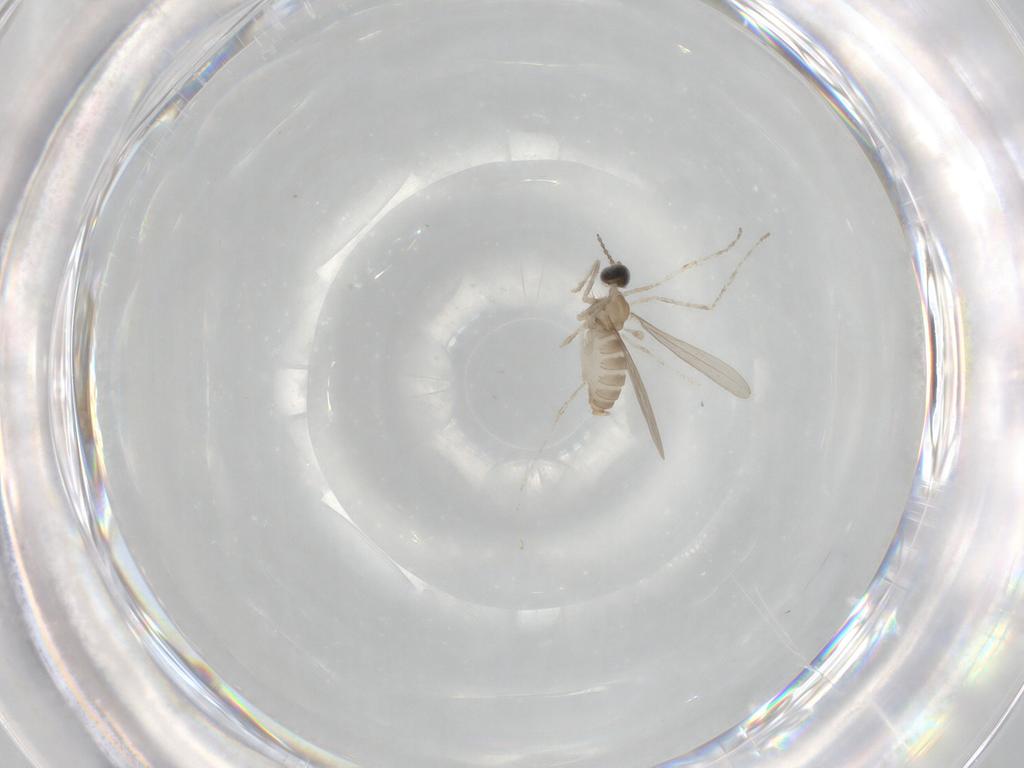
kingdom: Animalia
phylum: Arthropoda
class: Insecta
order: Diptera
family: Cecidomyiidae
